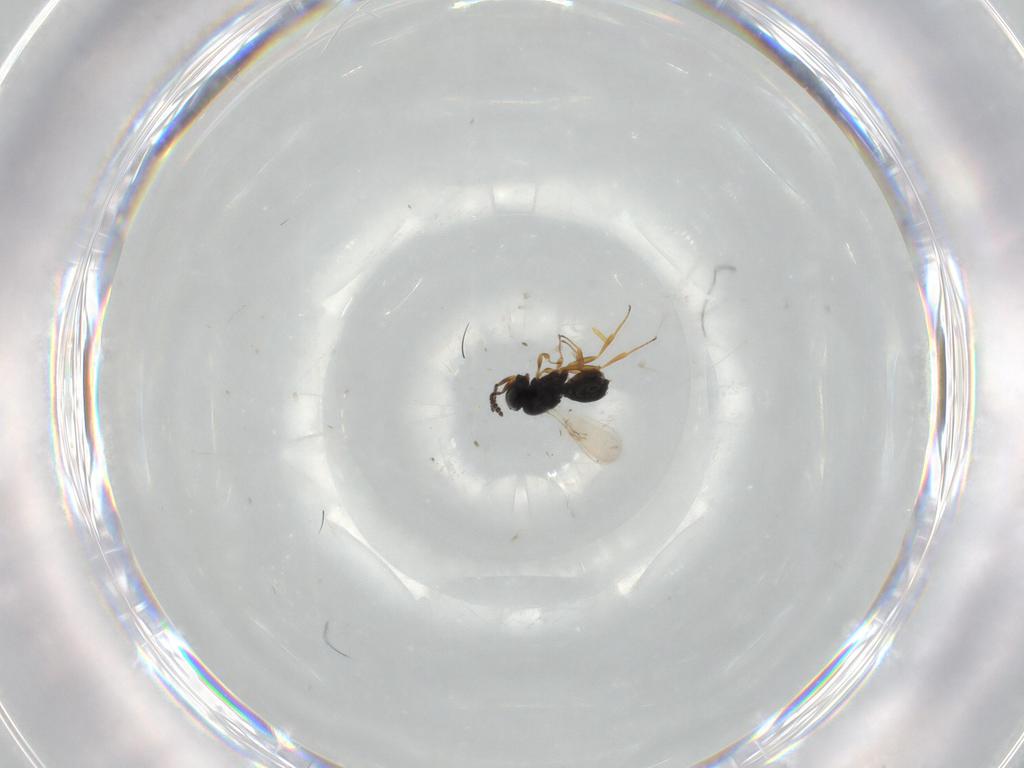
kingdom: Animalia
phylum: Arthropoda
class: Insecta
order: Hymenoptera
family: Scelionidae
